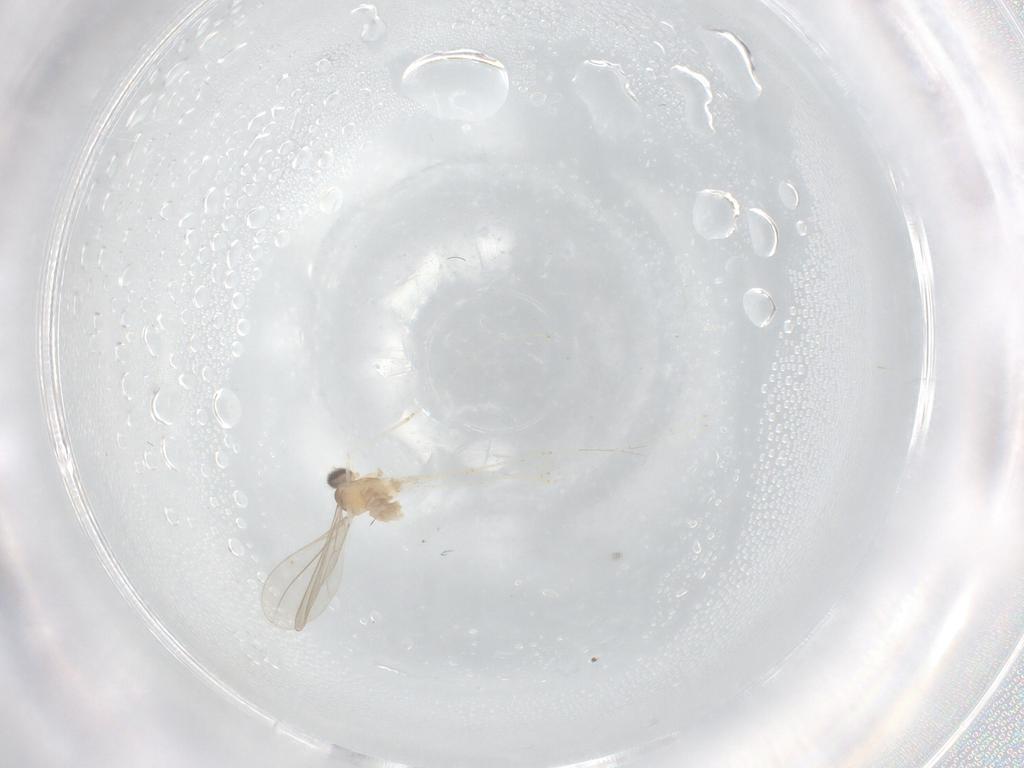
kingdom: Animalia
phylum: Arthropoda
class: Insecta
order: Diptera
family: Cecidomyiidae
